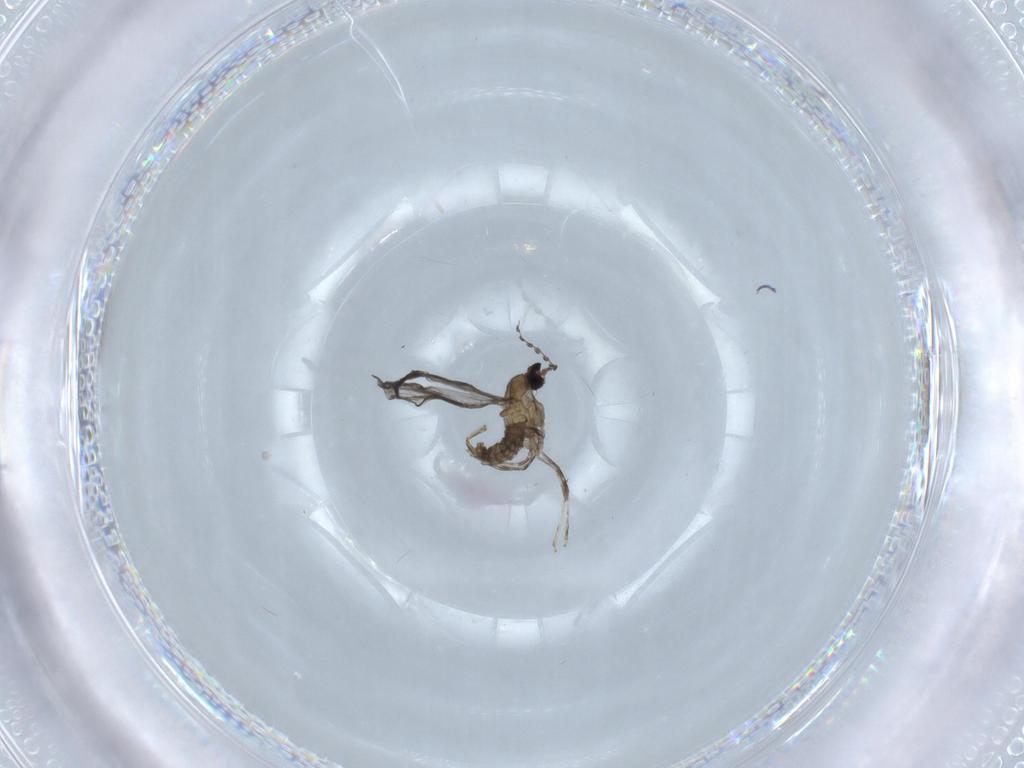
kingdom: Animalia
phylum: Arthropoda
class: Insecta
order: Diptera
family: Chironomidae
